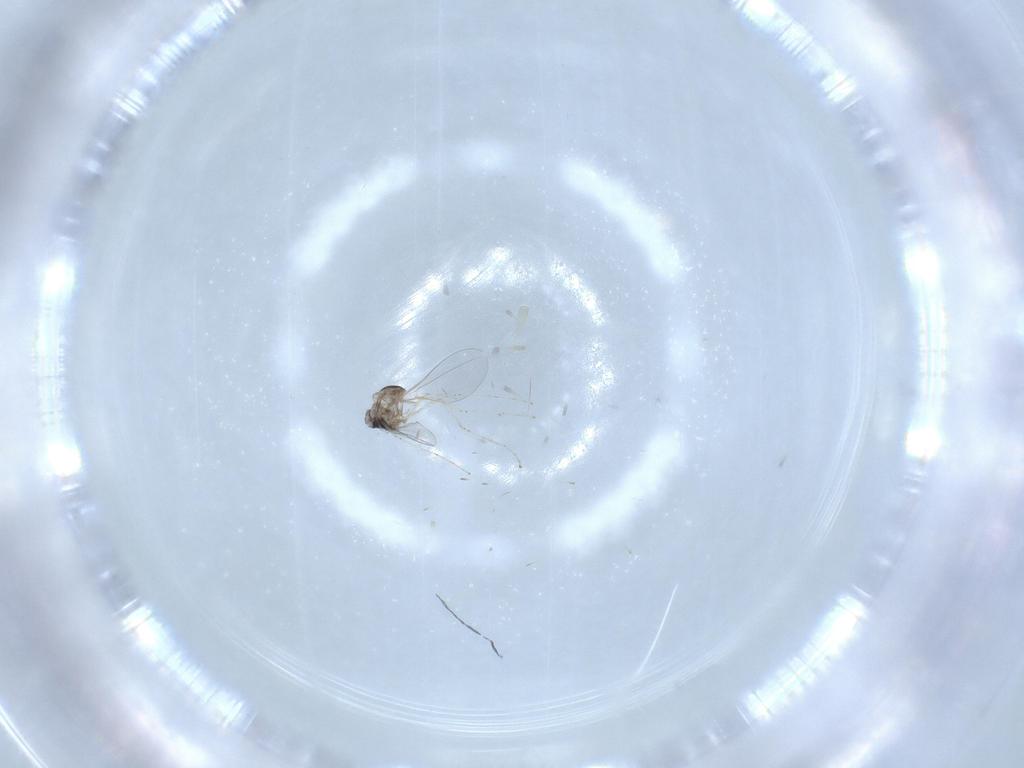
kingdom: Animalia
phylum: Arthropoda
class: Insecta
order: Diptera
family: Cecidomyiidae
